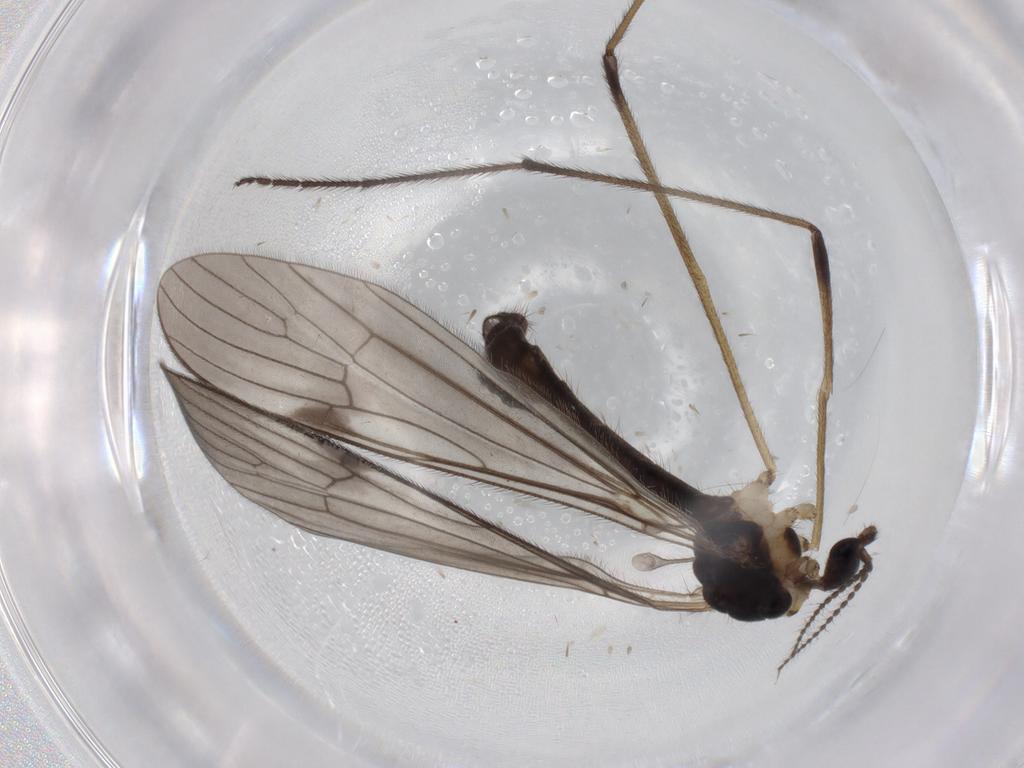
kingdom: Animalia
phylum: Arthropoda
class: Insecta
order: Diptera
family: Limoniidae
